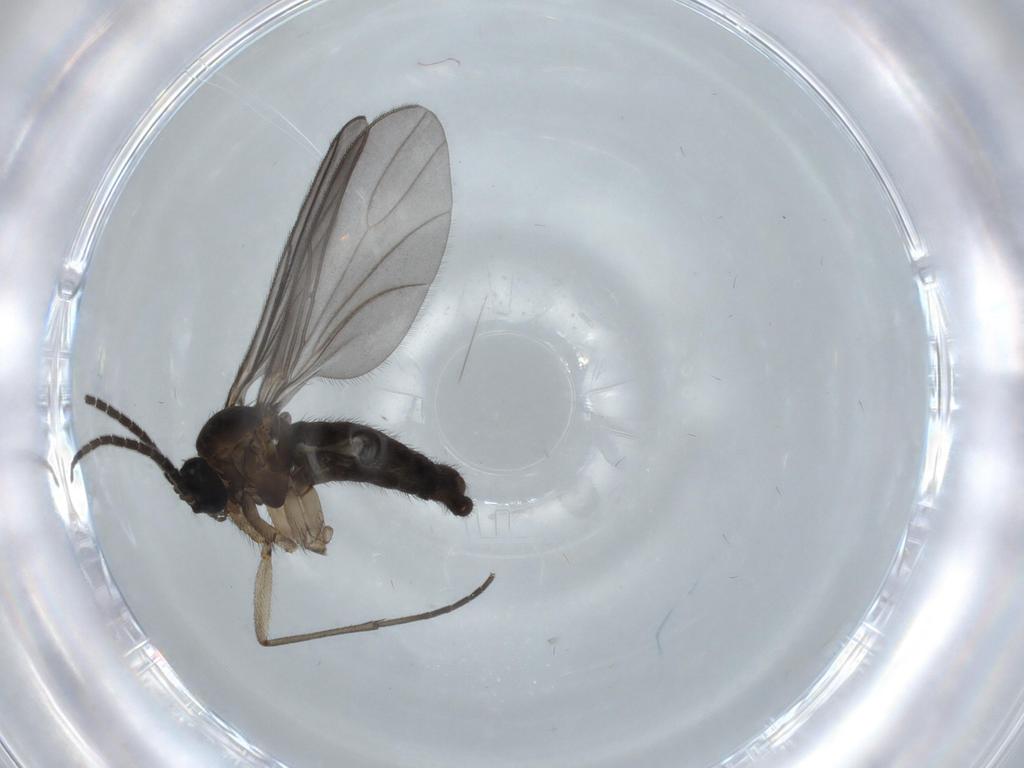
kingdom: Animalia
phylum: Arthropoda
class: Insecta
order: Diptera
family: Sciaridae
